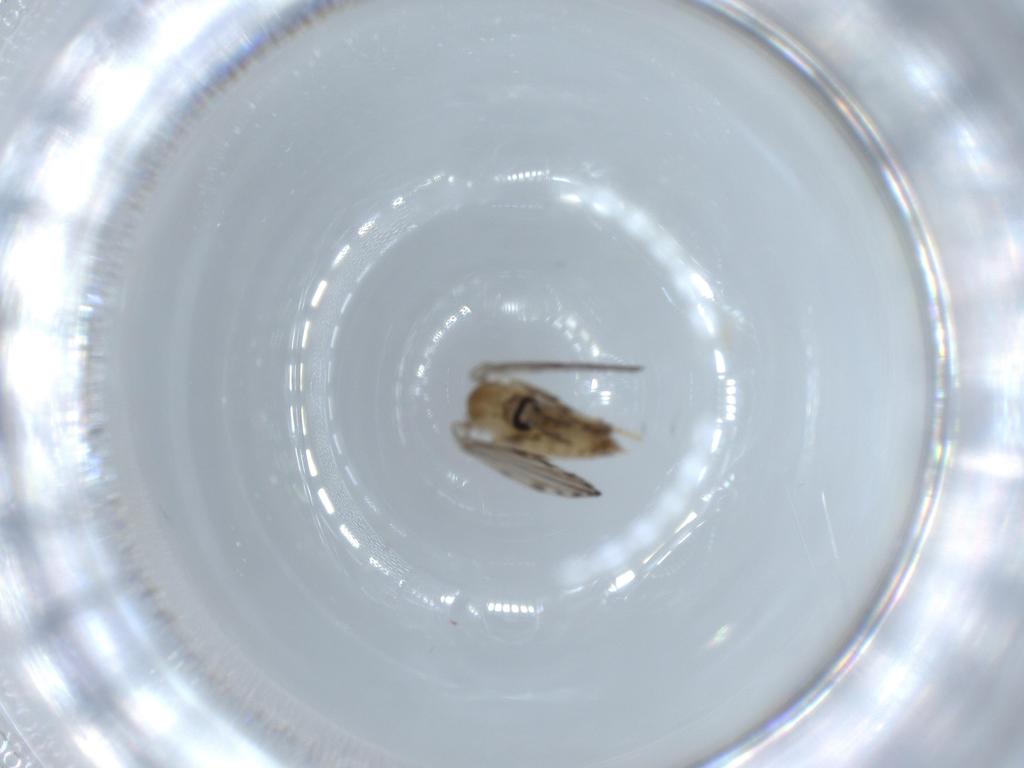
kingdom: Animalia
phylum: Arthropoda
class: Insecta
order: Diptera
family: Psychodidae
